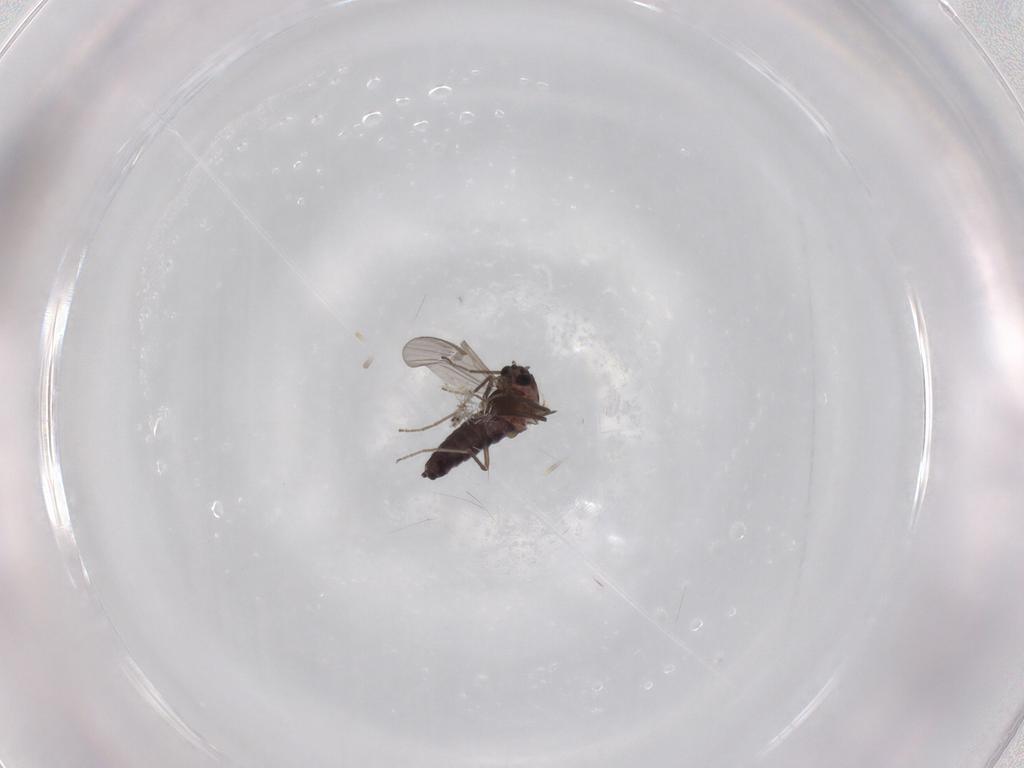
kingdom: Animalia
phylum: Arthropoda
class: Insecta
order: Diptera
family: Chironomidae
